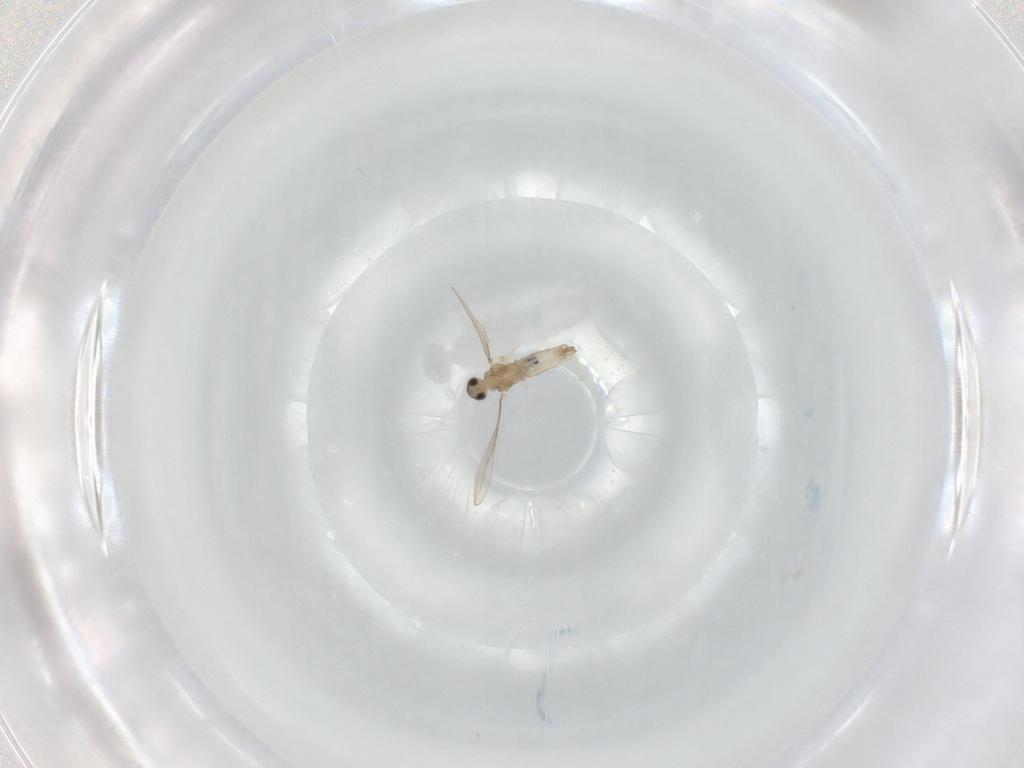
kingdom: Animalia
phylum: Arthropoda
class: Insecta
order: Diptera
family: Cecidomyiidae
